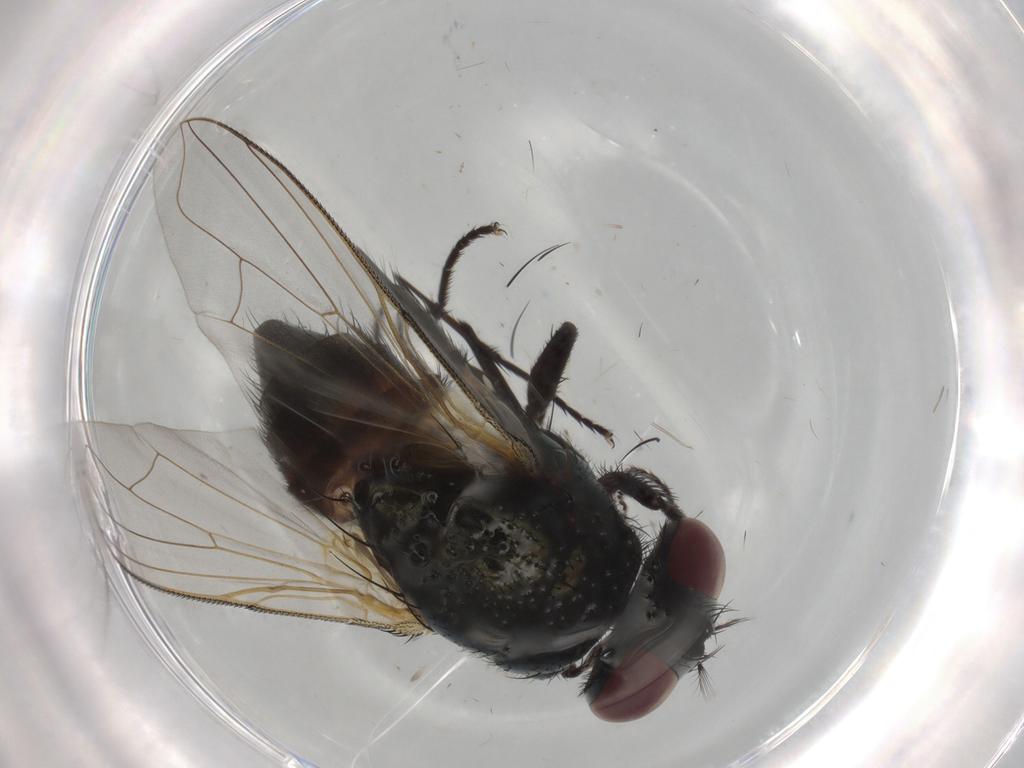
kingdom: Animalia
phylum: Arthropoda
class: Insecta
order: Diptera
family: Muscidae
